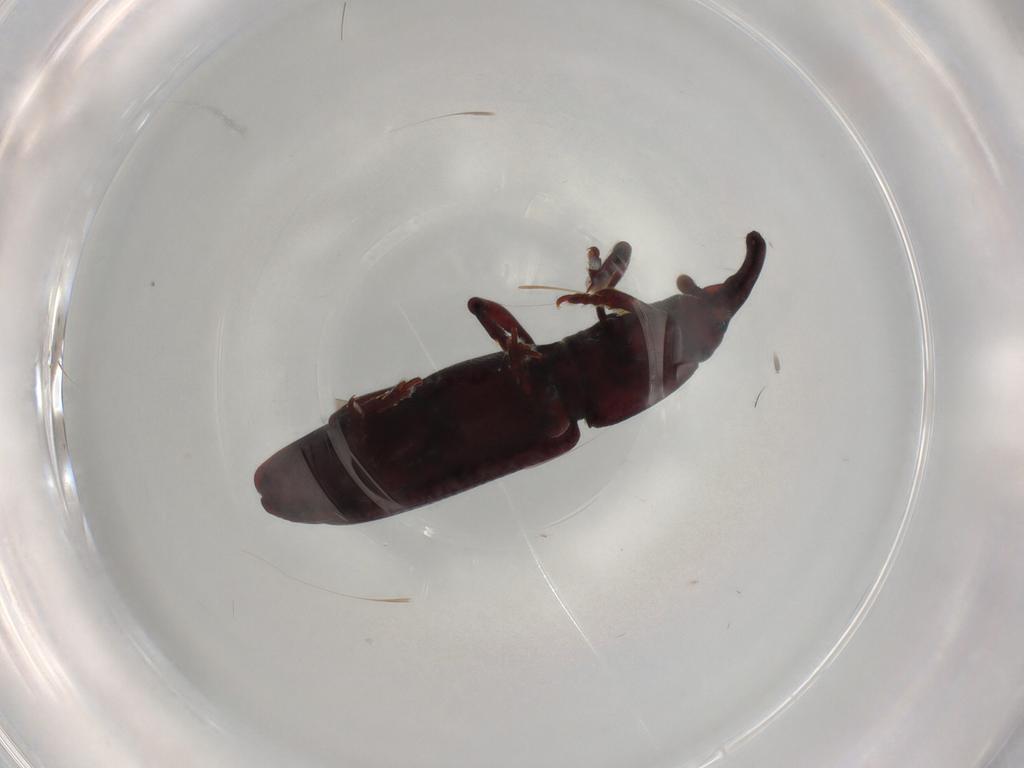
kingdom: Animalia
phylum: Arthropoda
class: Insecta
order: Coleoptera
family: Curculionidae
